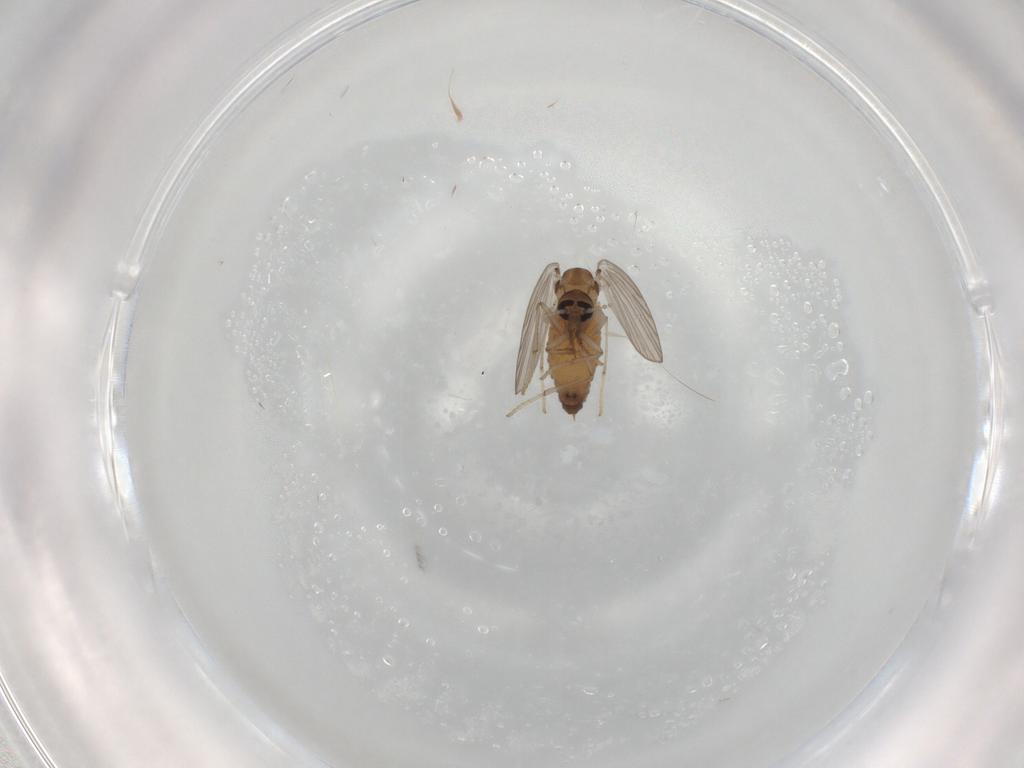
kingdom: Animalia
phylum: Arthropoda
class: Insecta
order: Diptera
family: Psychodidae
